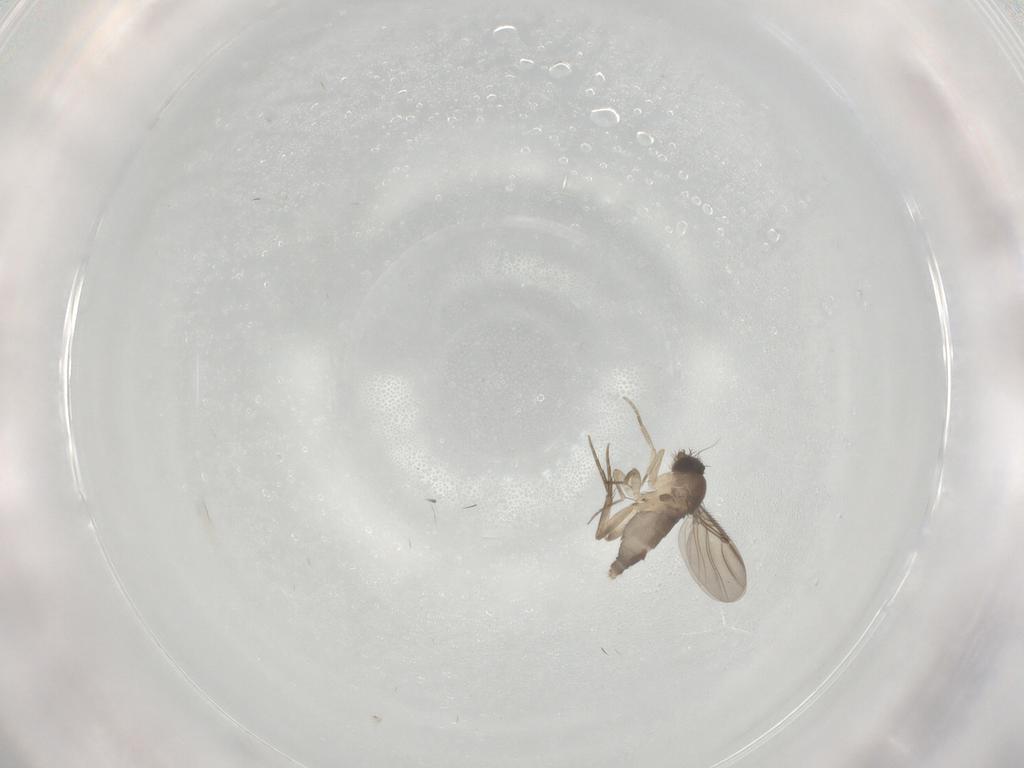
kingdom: Animalia
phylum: Arthropoda
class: Insecta
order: Diptera
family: Phoridae
